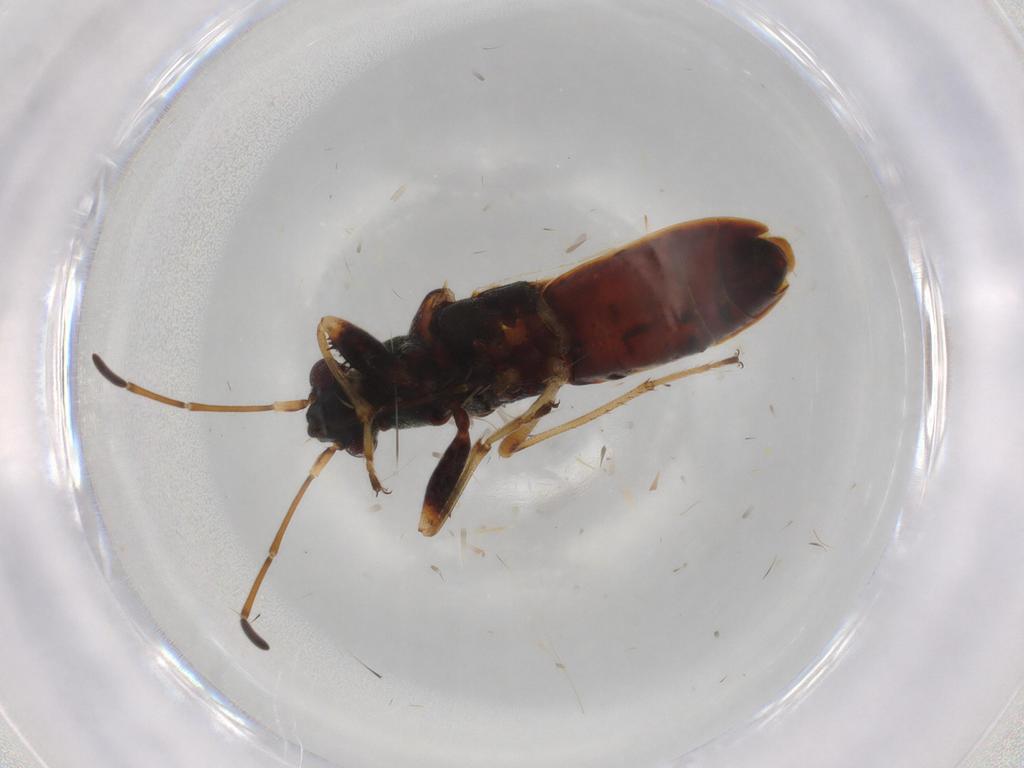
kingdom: Animalia
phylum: Arthropoda
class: Insecta
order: Hemiptera
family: Rhyparochromidae
